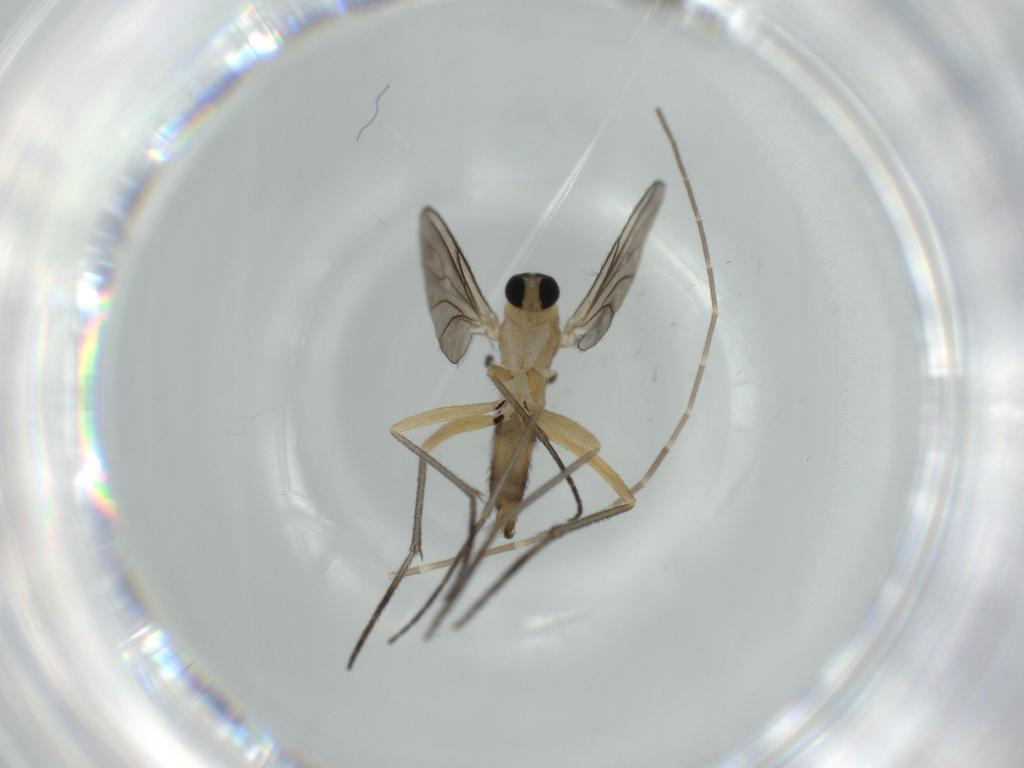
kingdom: Animalia
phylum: Arthropoda
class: Insecta
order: Diptera
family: Sciaridae
